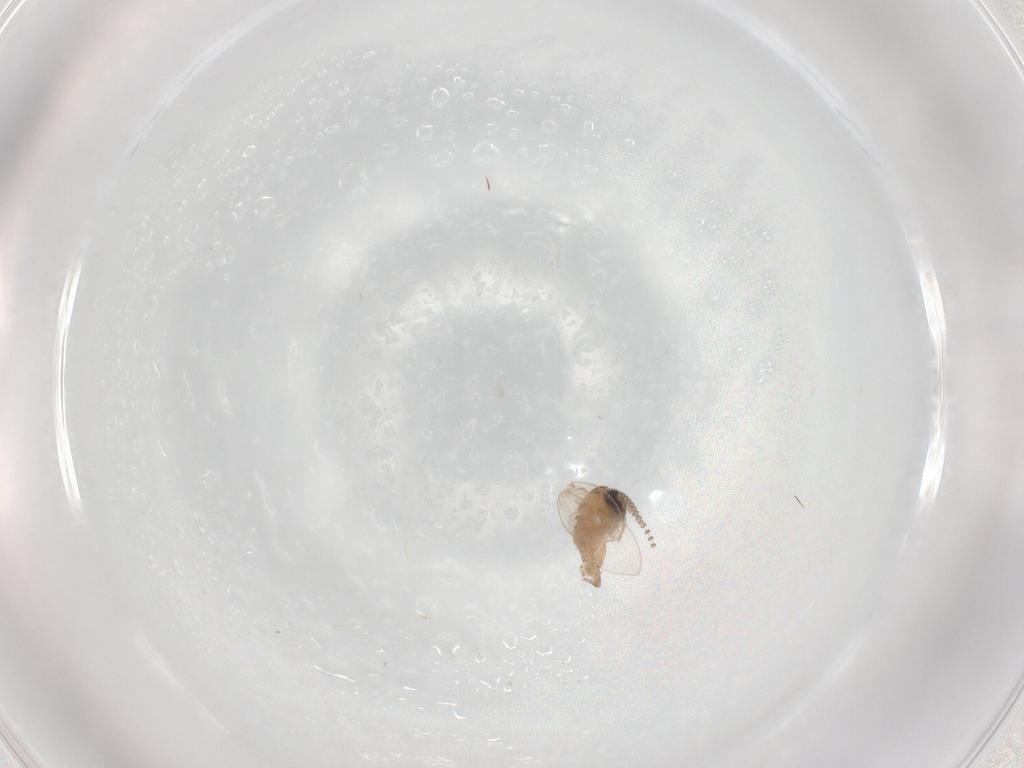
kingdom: Animalia
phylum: Arthropoda
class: Insecta
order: Diptera
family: Psychodidae
